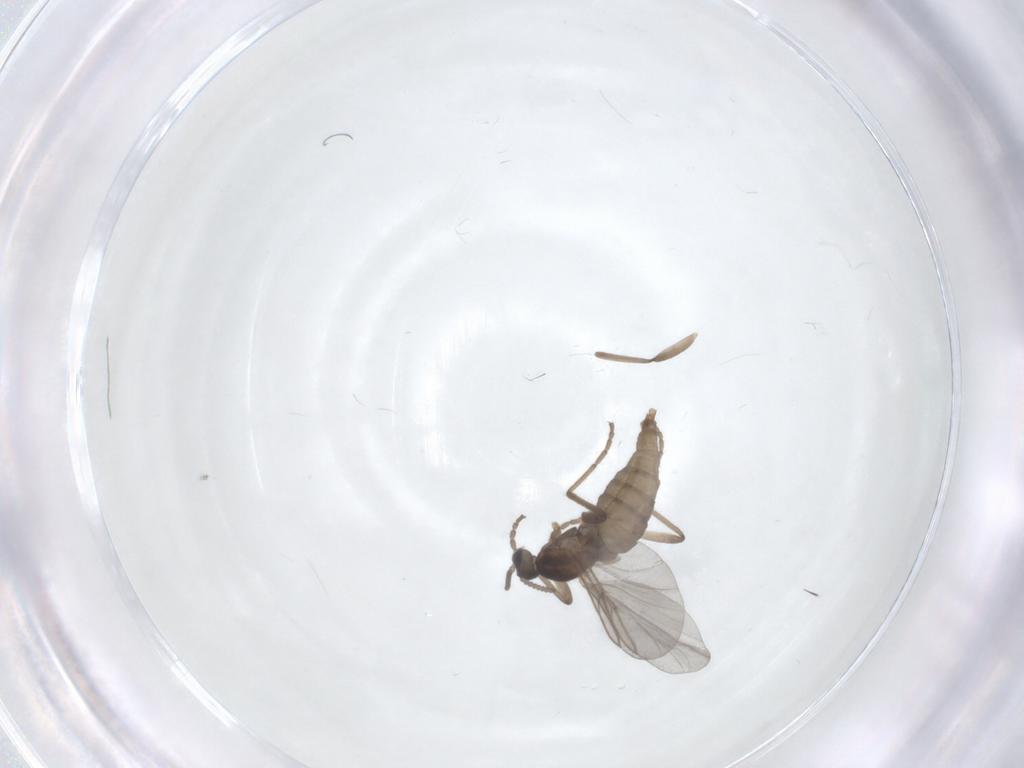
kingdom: Animalia
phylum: Arthropoda
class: Insecta
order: Diptera
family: Cecidomyiidae
